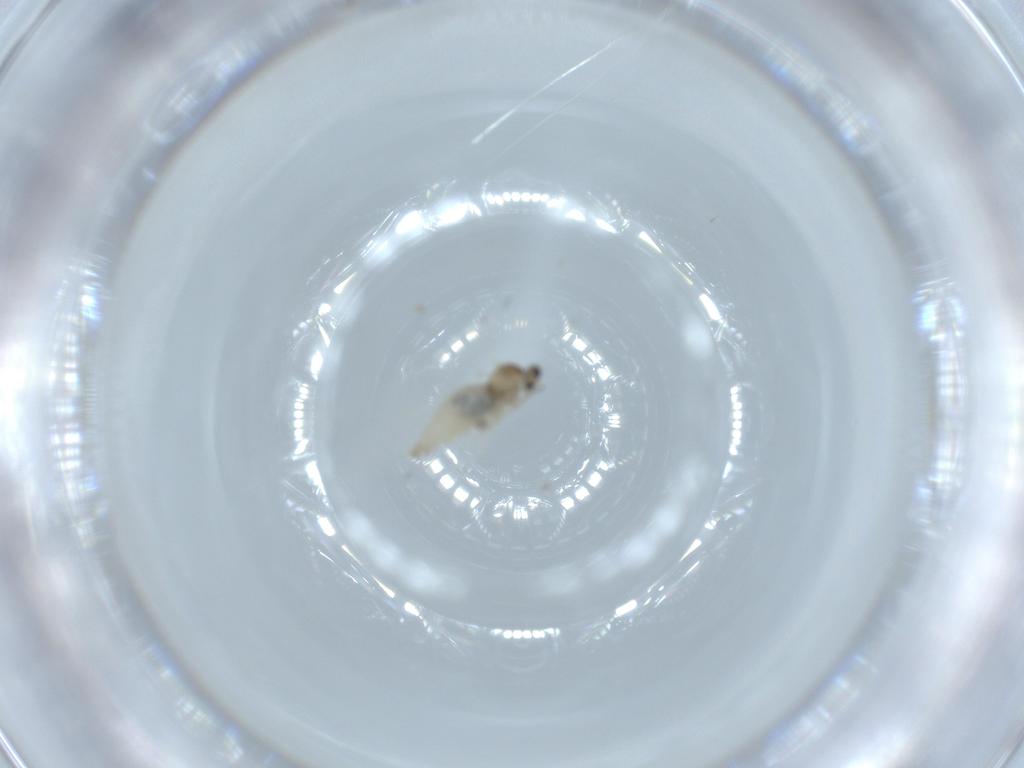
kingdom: Animalia
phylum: Arthropoda
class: Insecta
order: Diptera
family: Cecidomyiidae
